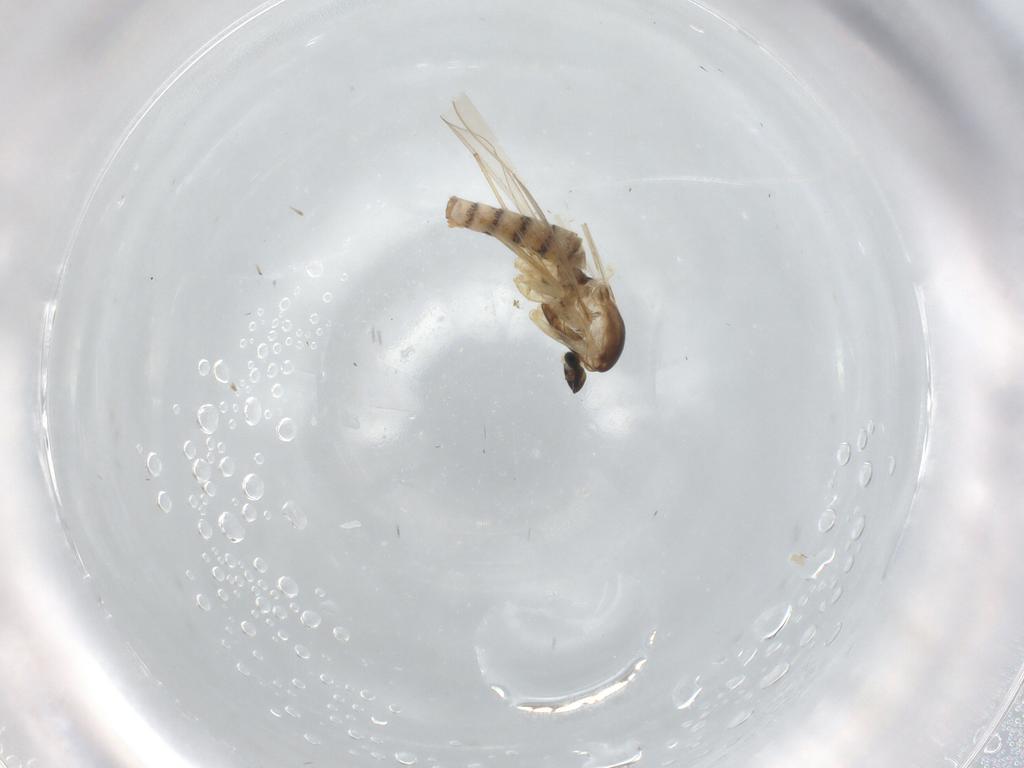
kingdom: Animalia
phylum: Arthropoda
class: Insecta
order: Diptera
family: Cecidomyiidae
